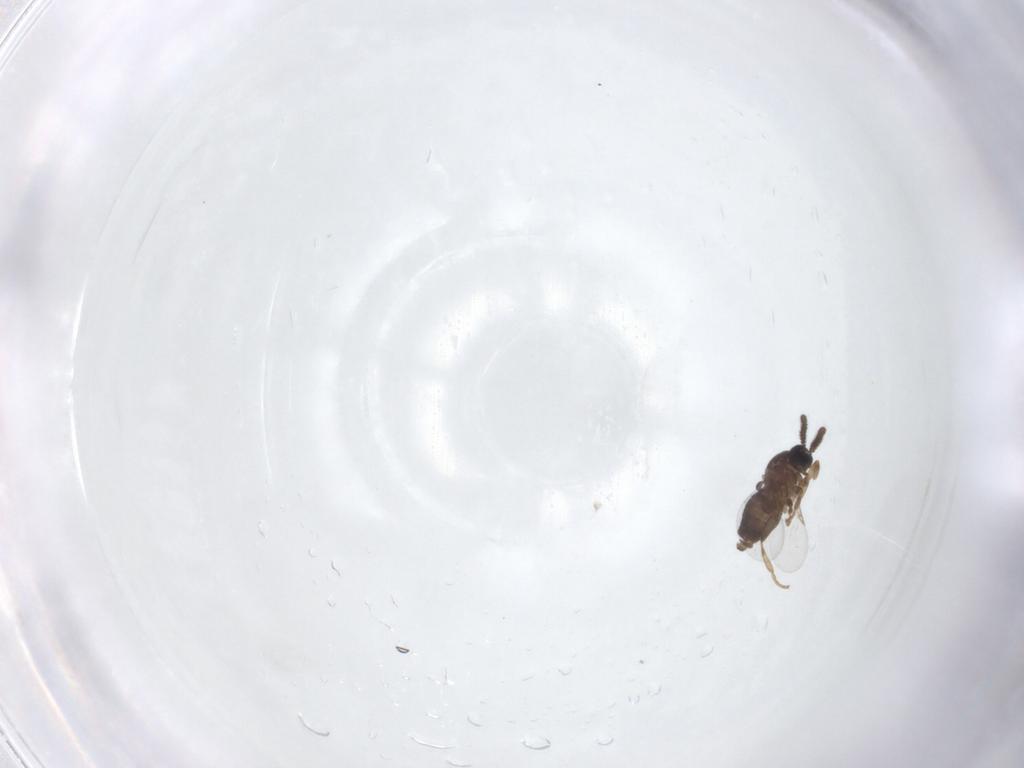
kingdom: Animalia
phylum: Arthropoda
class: Insecta
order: Diptera
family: Scatopsidae
